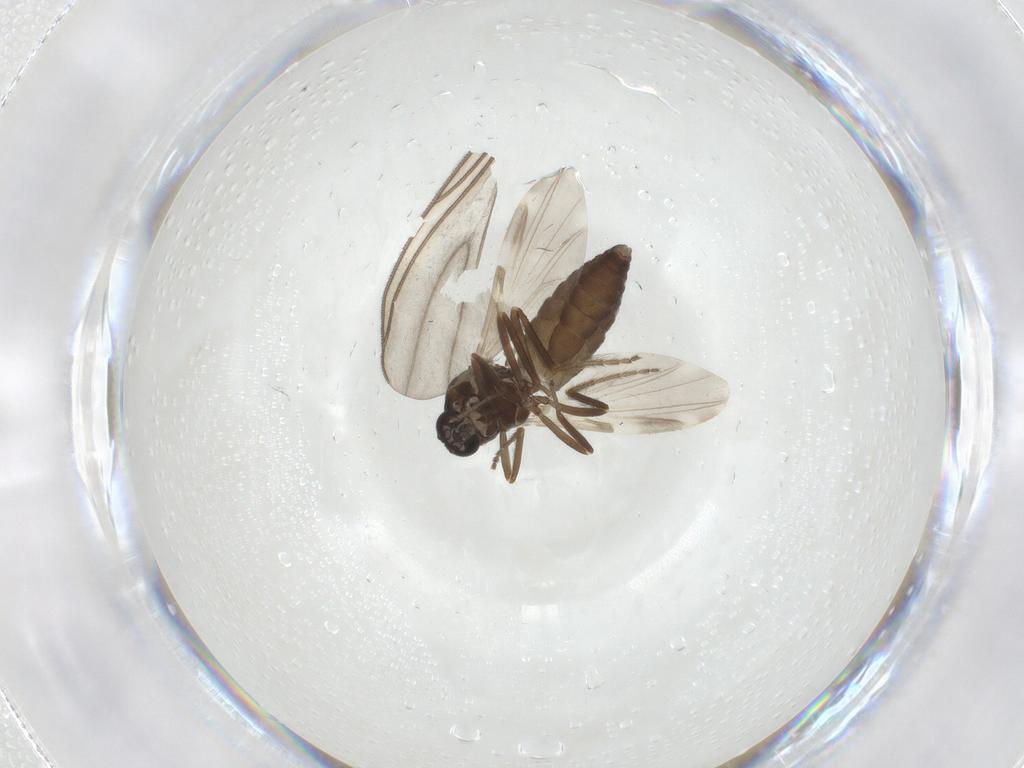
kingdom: Animalia
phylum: Arthropoda
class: Insecta
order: Diptera
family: Ceratopogonidae
